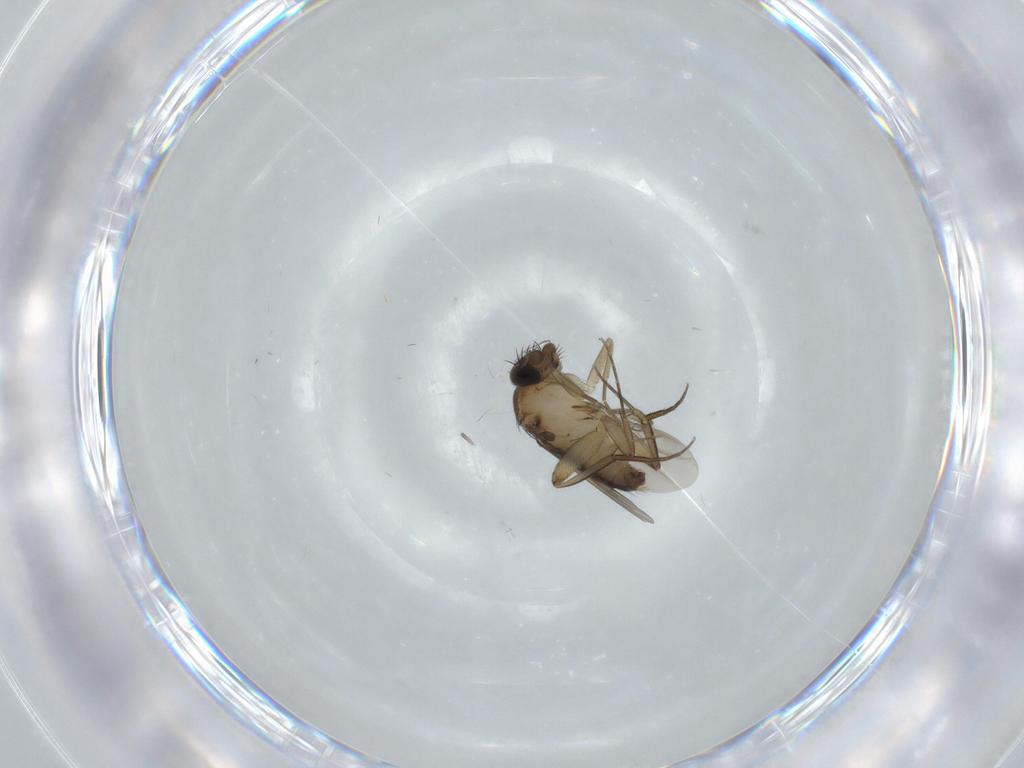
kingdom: Animalia
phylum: Arthropoda
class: Insecta
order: Diptera
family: Phoridae
